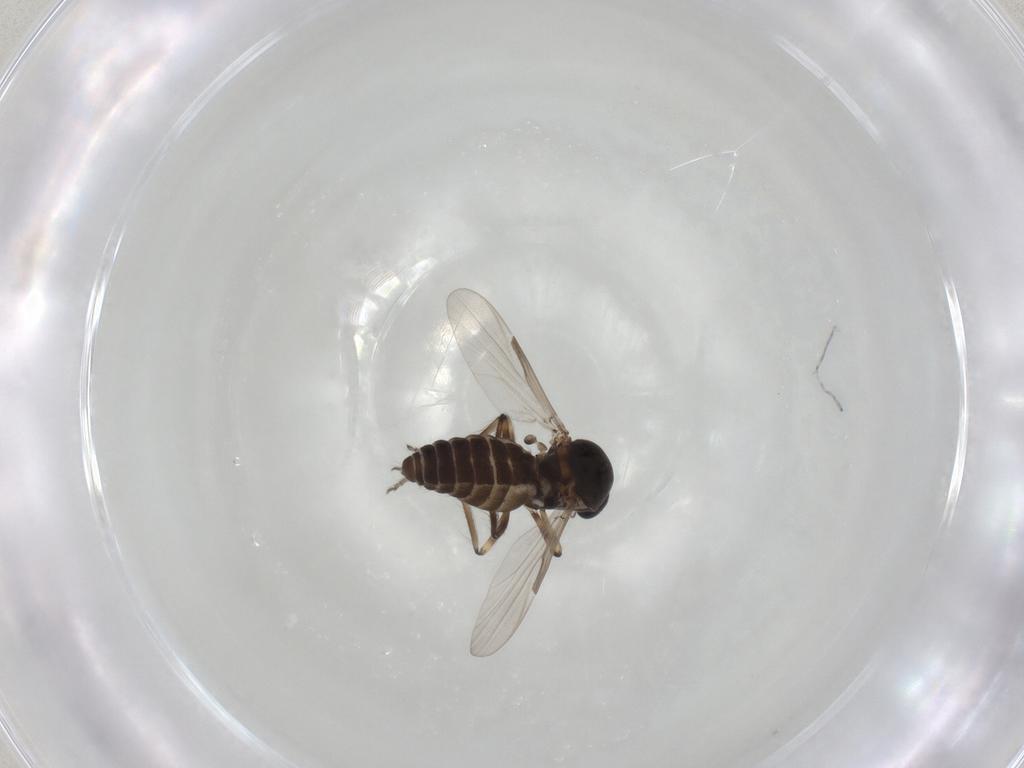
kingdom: Animalia
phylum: Arthropoda
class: Insecta
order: Diptera
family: Ceratopogonidae
